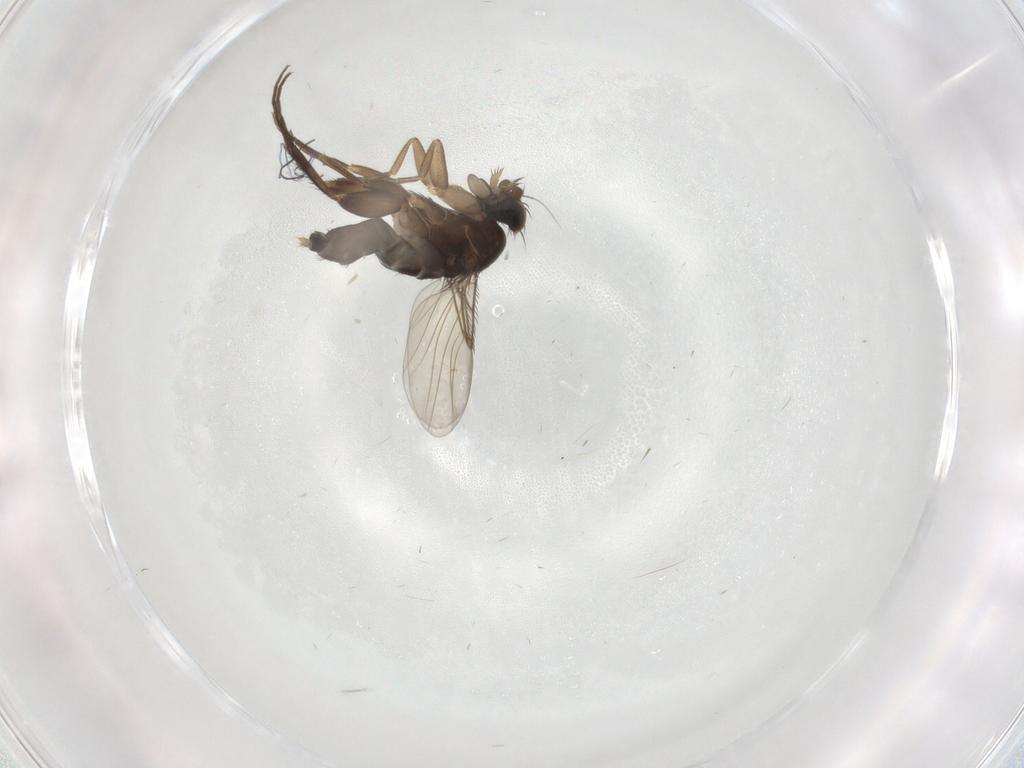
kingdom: Animalia
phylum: Arthropoda
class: Insecta
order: Diptera
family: Phoridae
